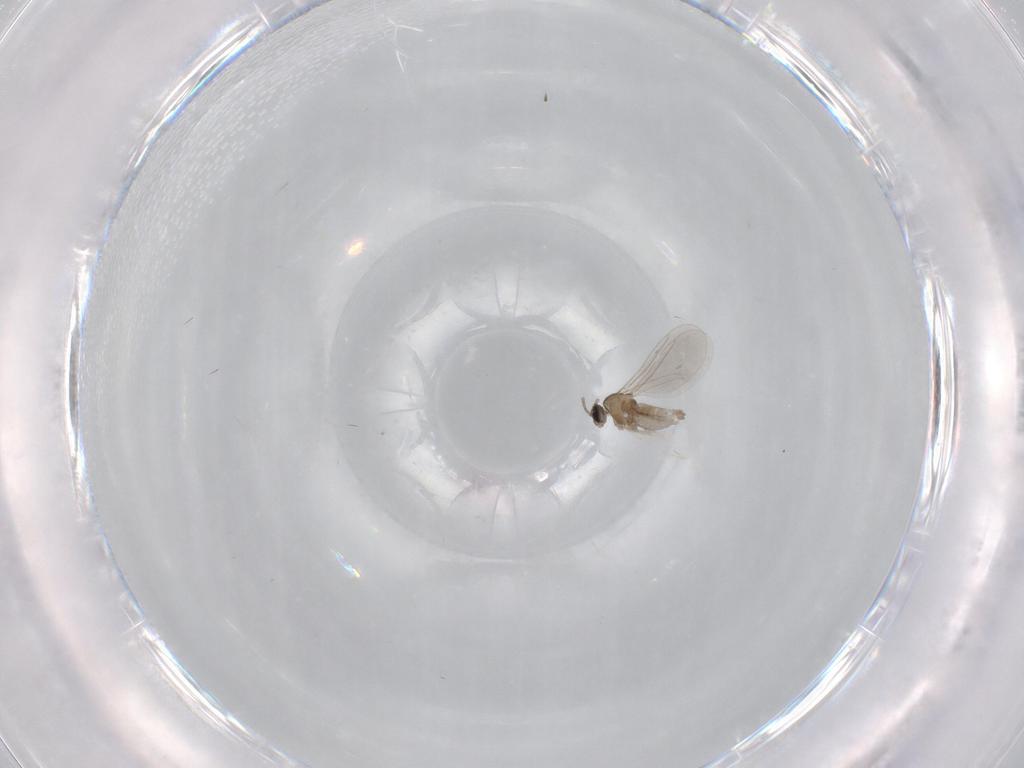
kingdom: Animalia
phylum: Arthropoda
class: Insecta
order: Diptera
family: Cecidomyiidae
